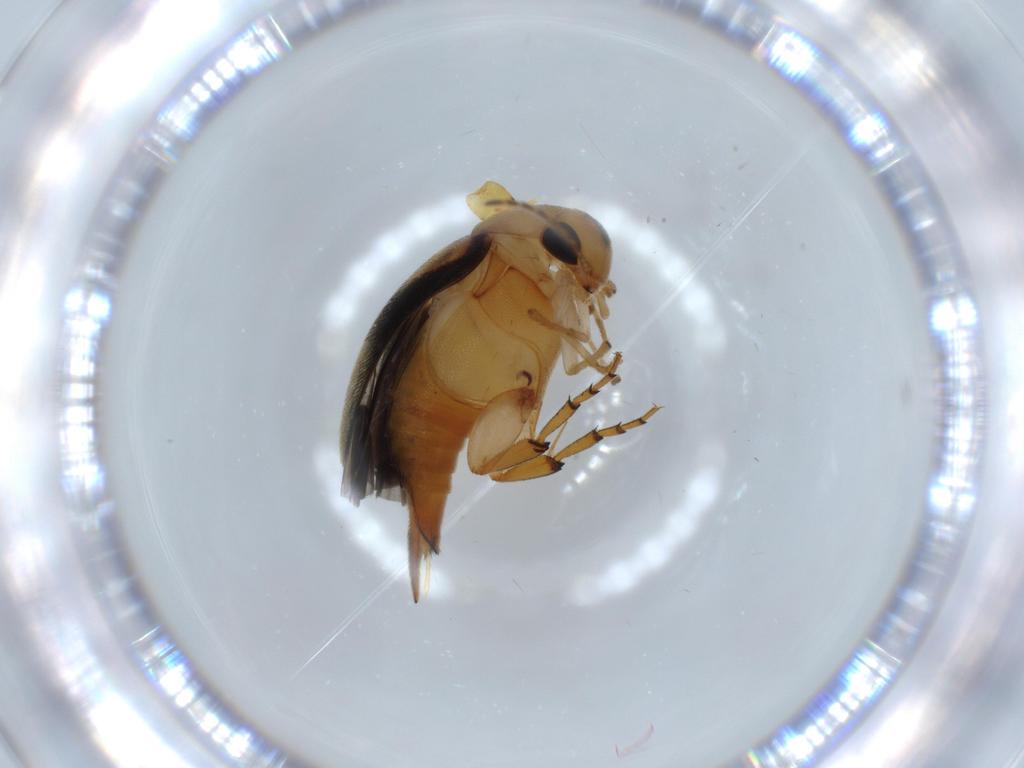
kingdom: Animalia
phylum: Arthropoda
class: Insecta
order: Coleoptera
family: Mordellidae
